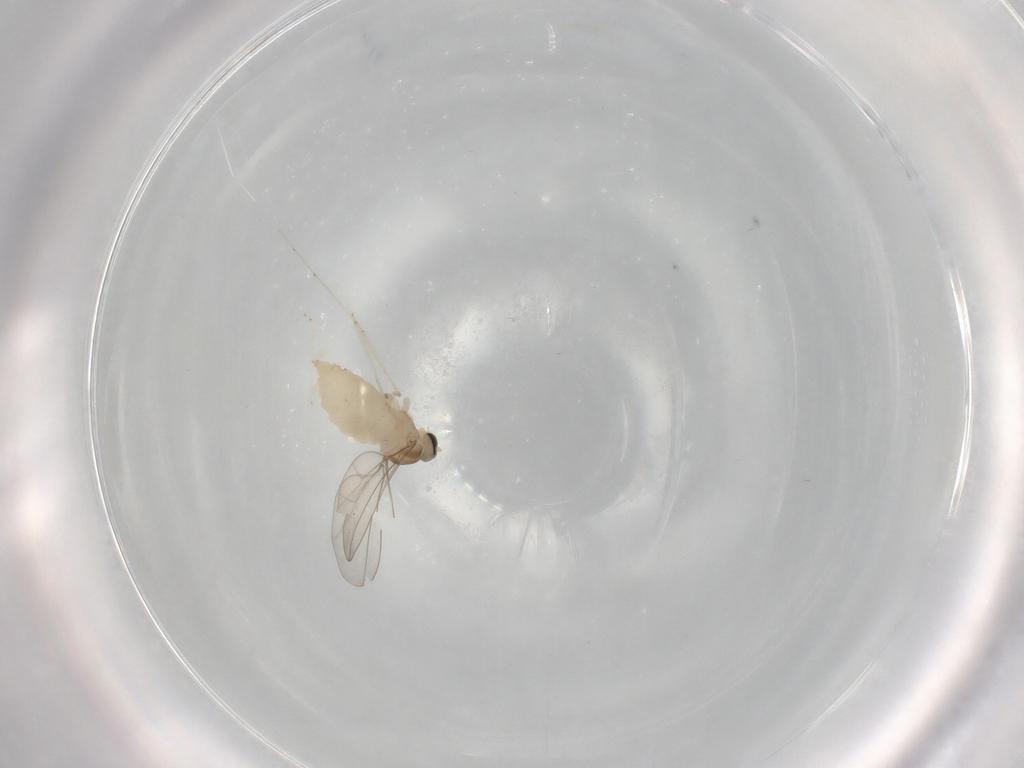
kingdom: Animalia
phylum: Arthropoda
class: Insecta
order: Diptera
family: Cecidomyiidae
